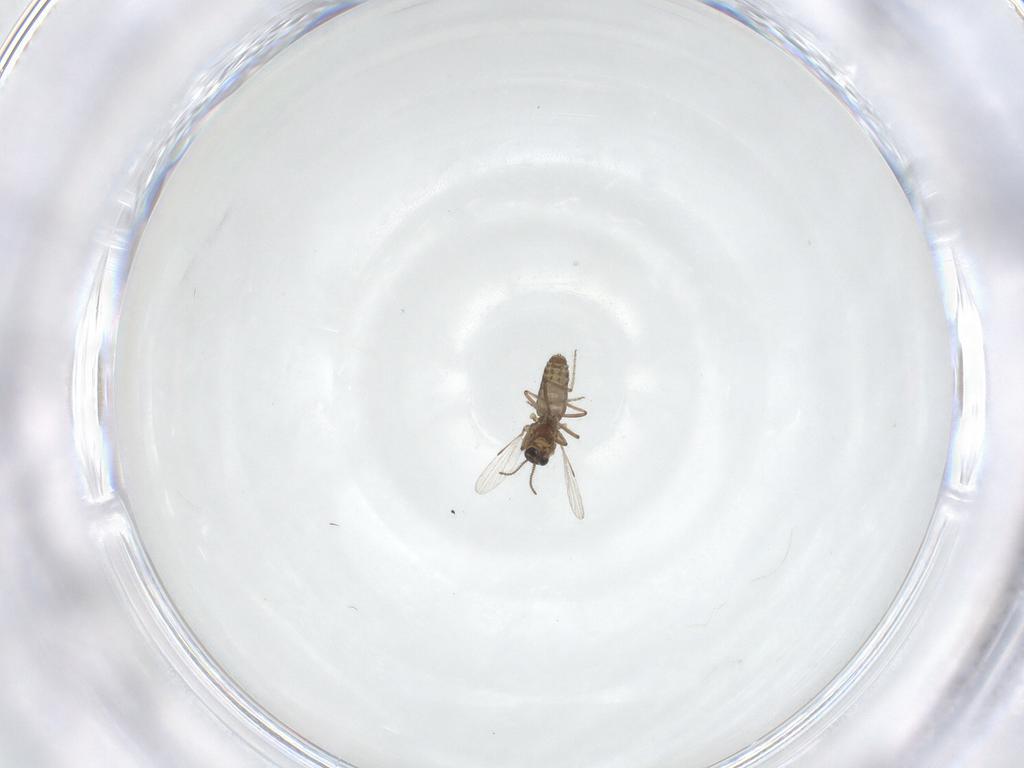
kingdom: Animalia
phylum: Arthropoda
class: Insecta
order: Diptera
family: Ceratopogonidae
